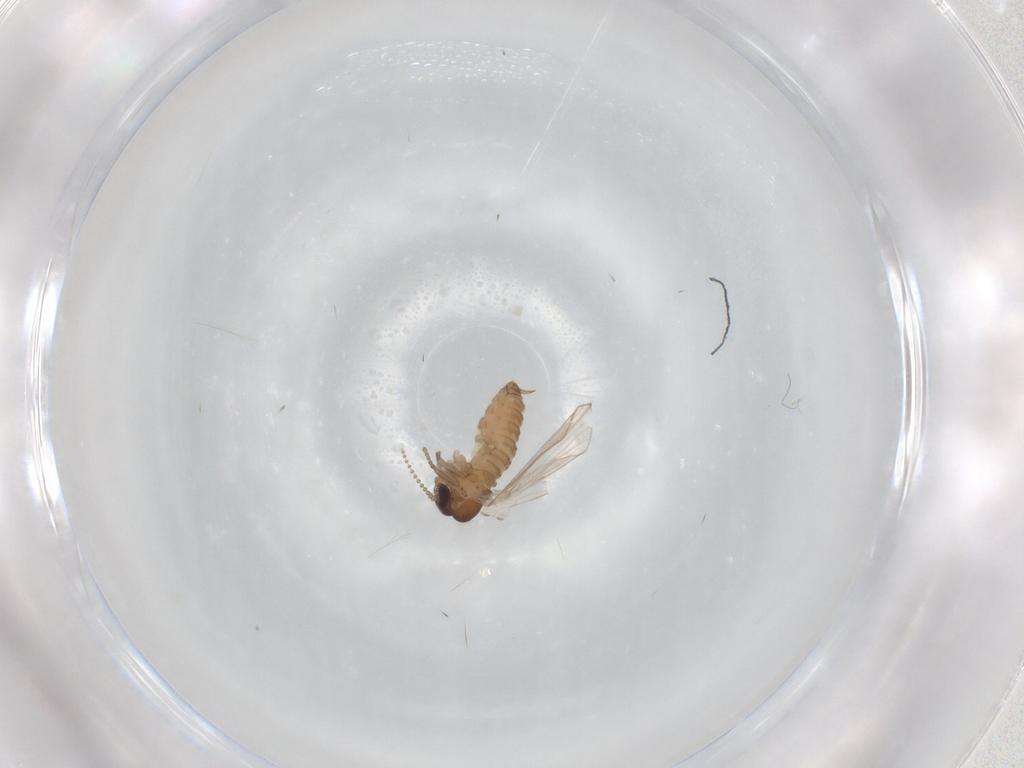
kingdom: Animalia
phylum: Arthropoda
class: Insecta
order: Diptera
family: Psychodidae
